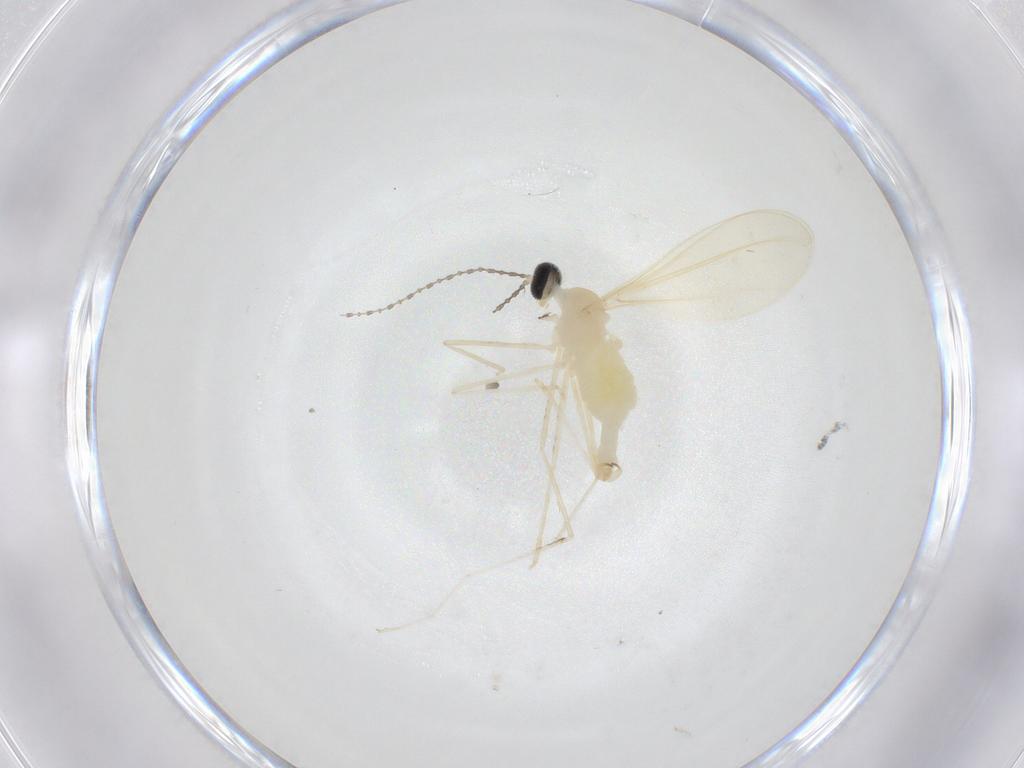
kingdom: Animalia
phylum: Arthropoda
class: Insecta
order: Diptera
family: Cecidomyiidae
